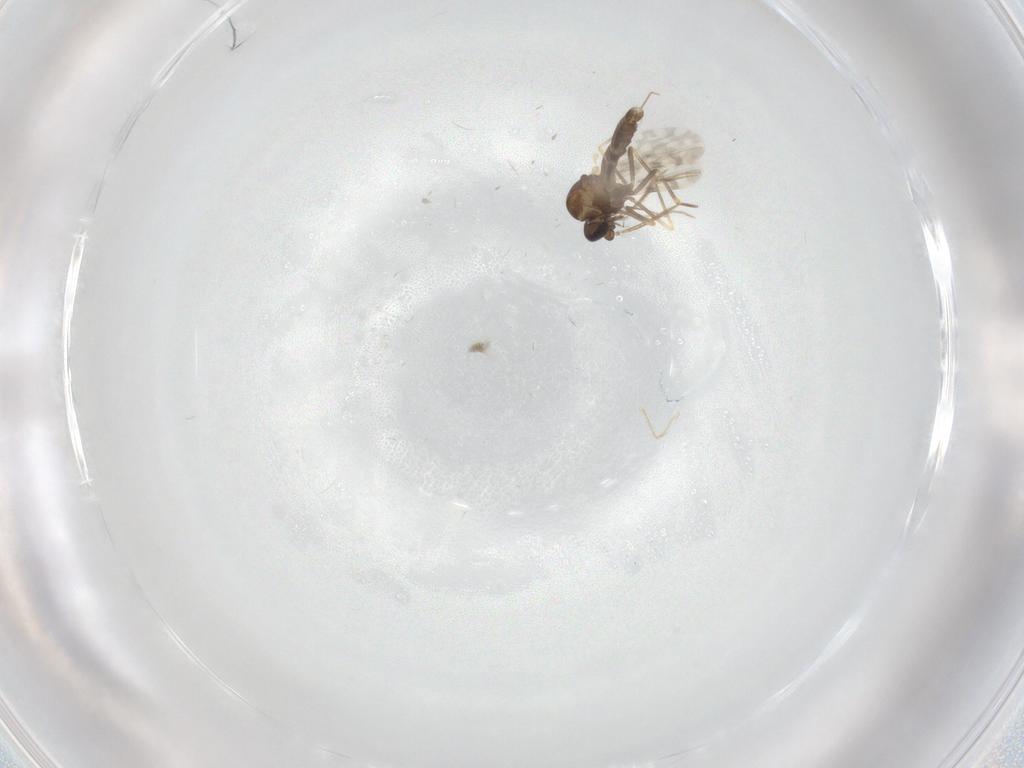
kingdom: Animalia
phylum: Arthropoda
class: Insecta
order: Diptera
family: Ceratopogonidae
